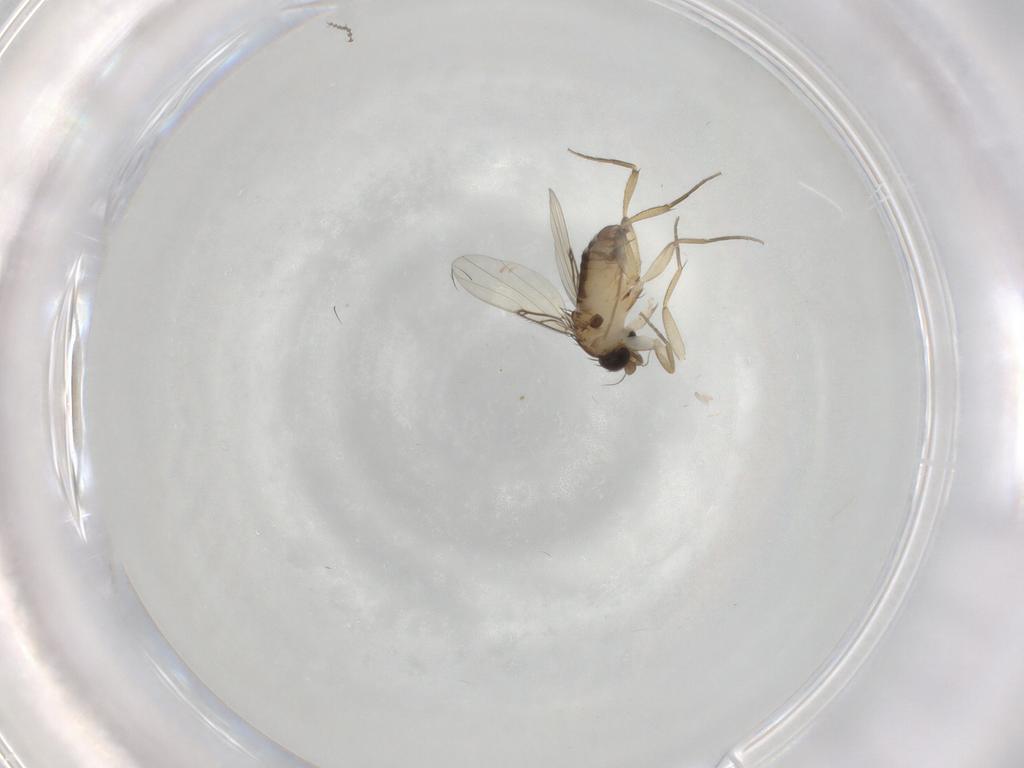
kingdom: Animalia
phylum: Arthropoda
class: Insecta
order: Diptera
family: Phoridae
